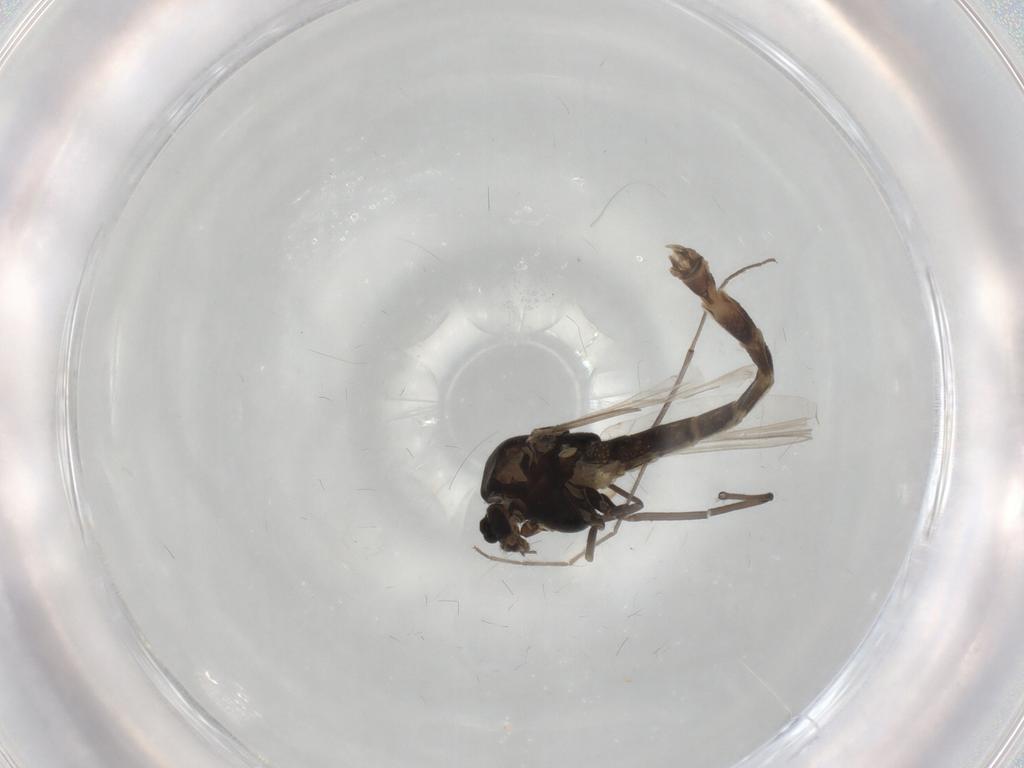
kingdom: Animalia
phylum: Arthropoda
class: Insecta
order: Diptera
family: Chironomidae
